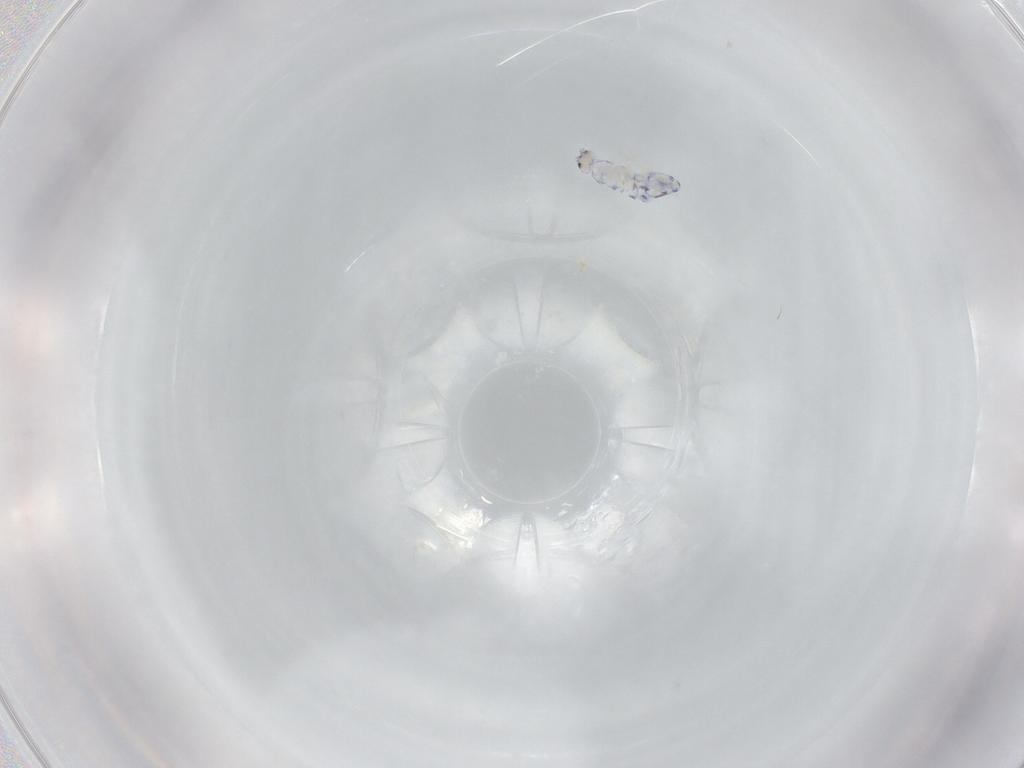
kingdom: Animalia
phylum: Arthropoda
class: Collembola
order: Entomobryomorpha
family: Entomobryidae
